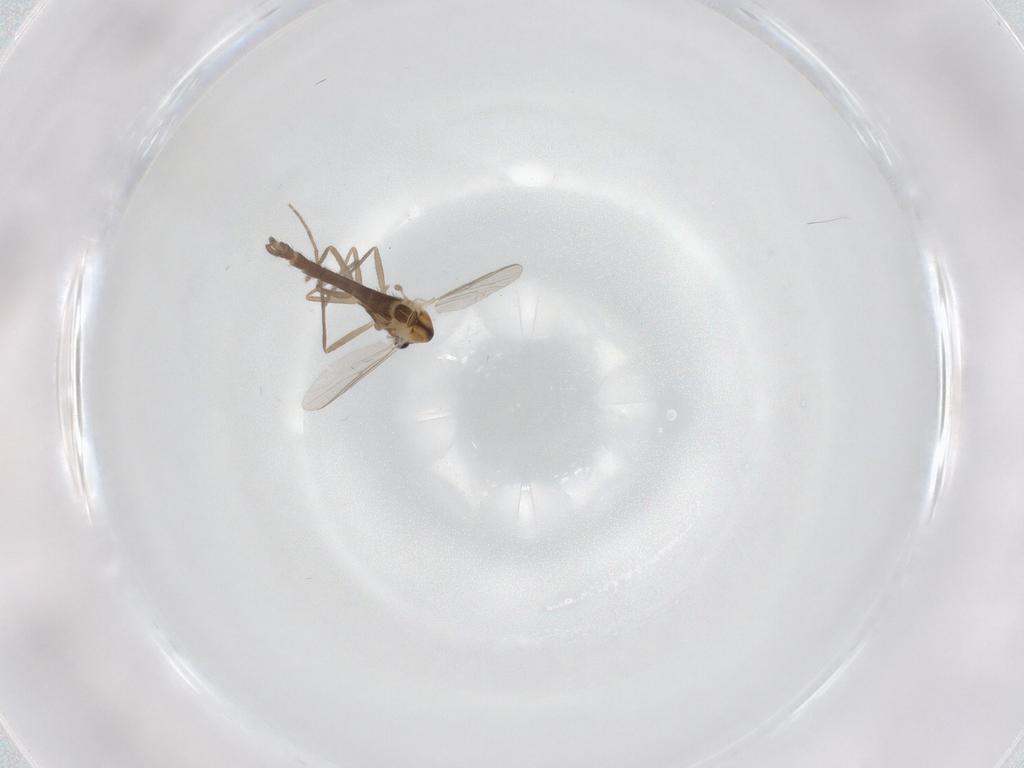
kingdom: Animalia
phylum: Arthropoda
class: Insecta
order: Diptera
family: Chironomidae
